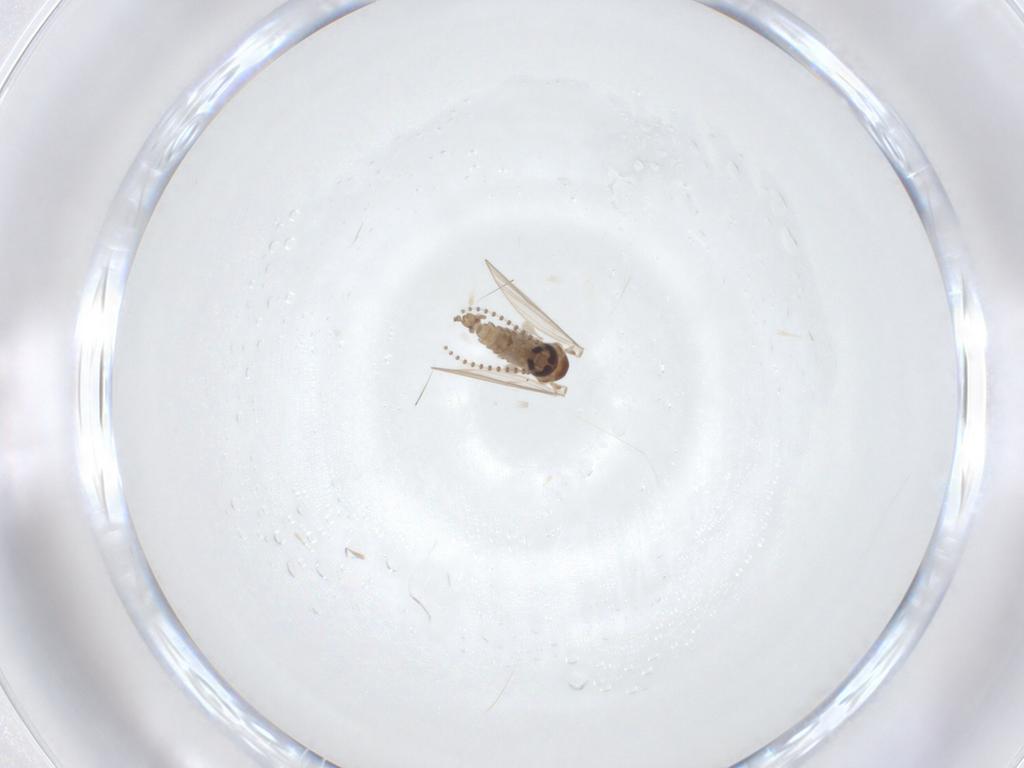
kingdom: Animalia
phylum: Arthropoda
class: Insecta
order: Diptera
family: Psychodidae
